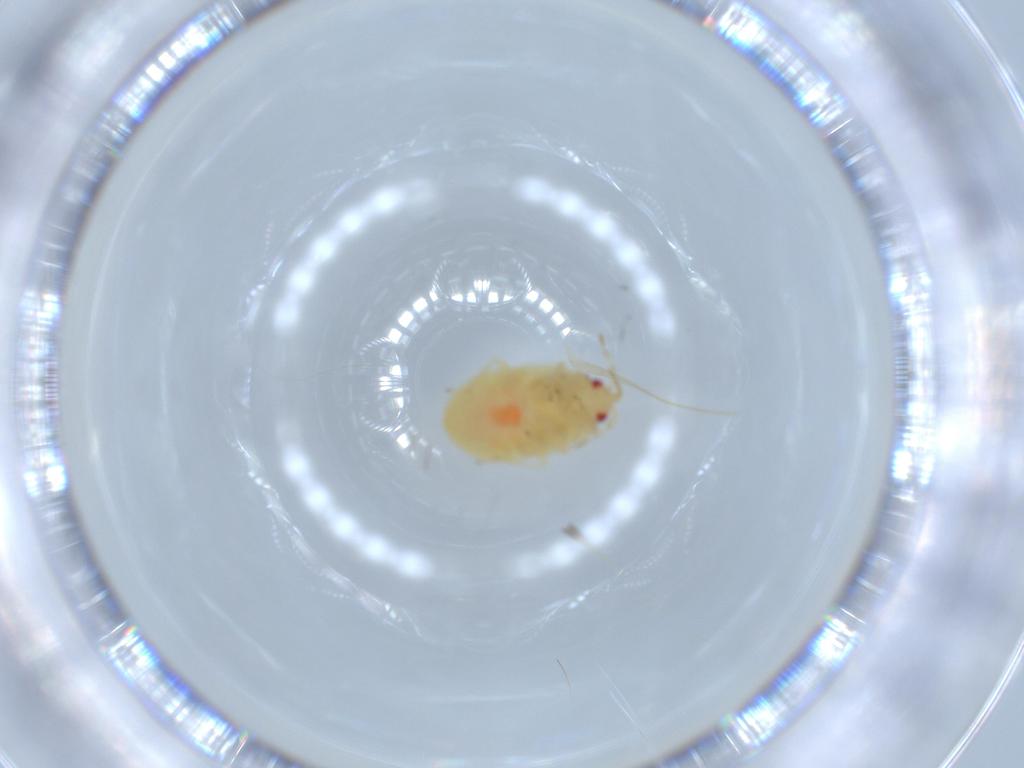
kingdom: Animalia
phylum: Arthropoda
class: Insecta
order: Hemiptera
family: Anthocoridae
